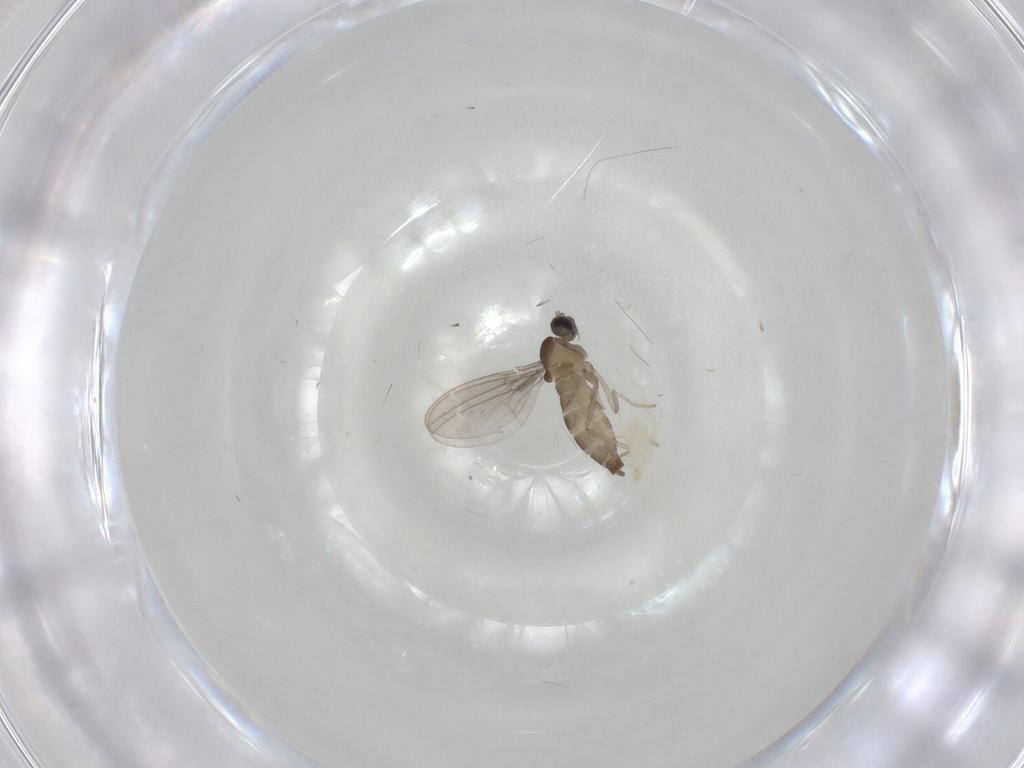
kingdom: Animalia
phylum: Arthropoda
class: Insecta
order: Diptera
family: Cecidomyiidae
